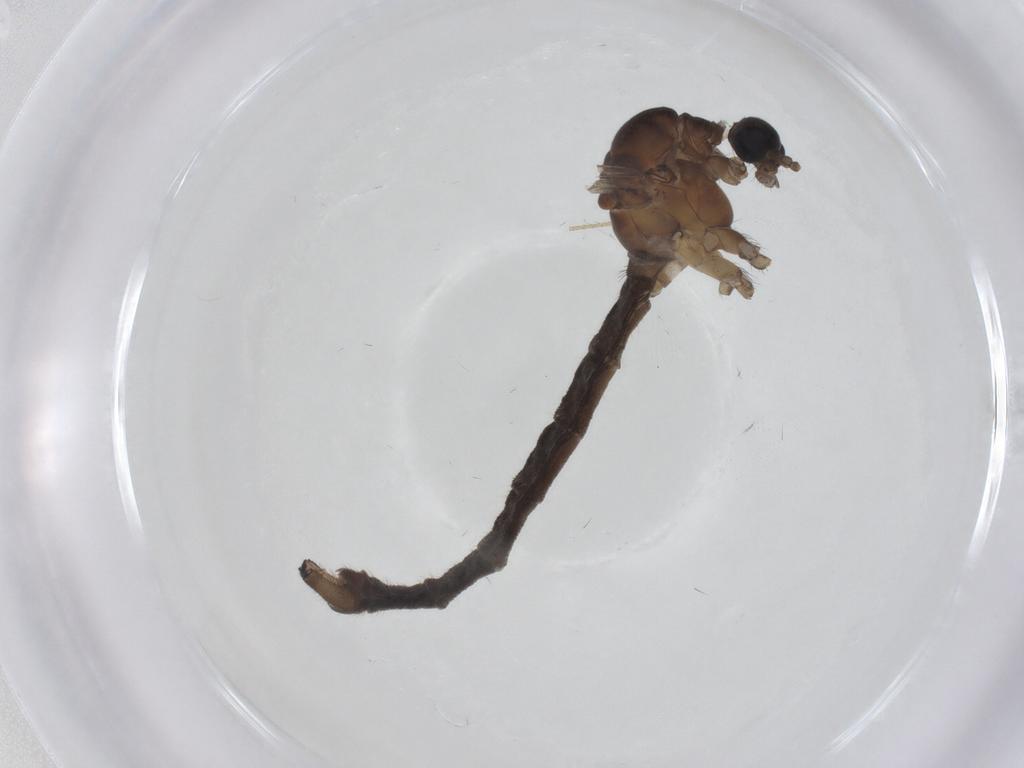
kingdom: Animalia
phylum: Arthropoda
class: Insecta
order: Diptera
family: Limoniidae
